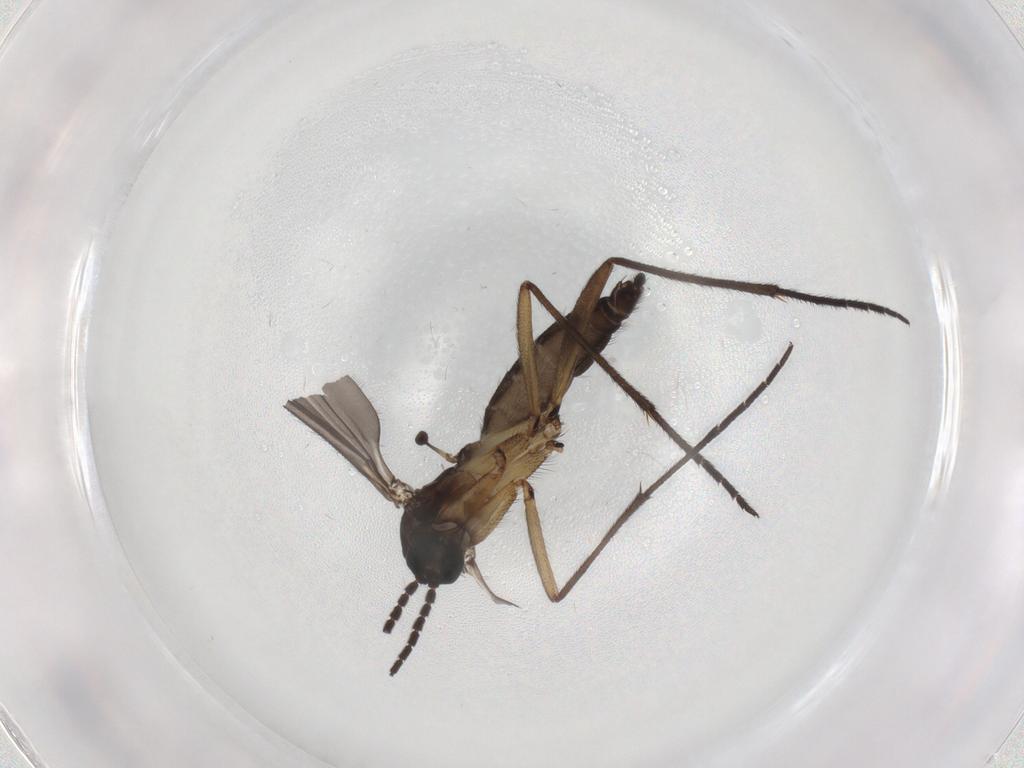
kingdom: Animalia
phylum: Arthropoda
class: Insecta
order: Diptera
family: Sciaridae
